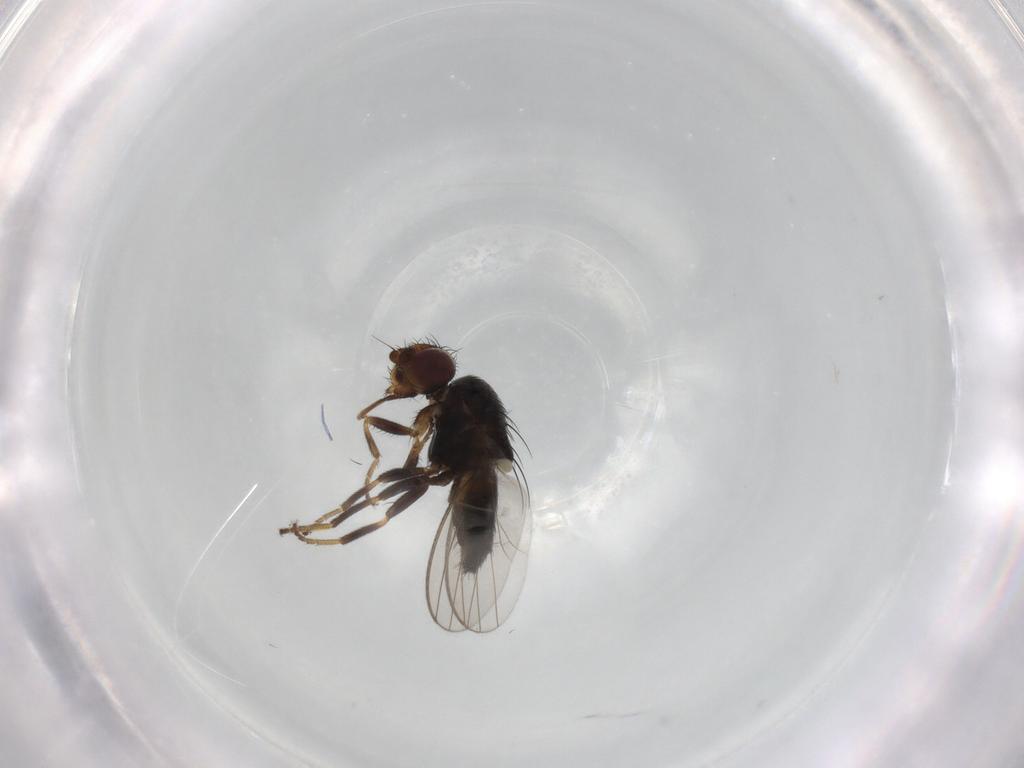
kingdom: Animalia
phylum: Arthropoda
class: Insecta
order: Diptera
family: Milichiidae
